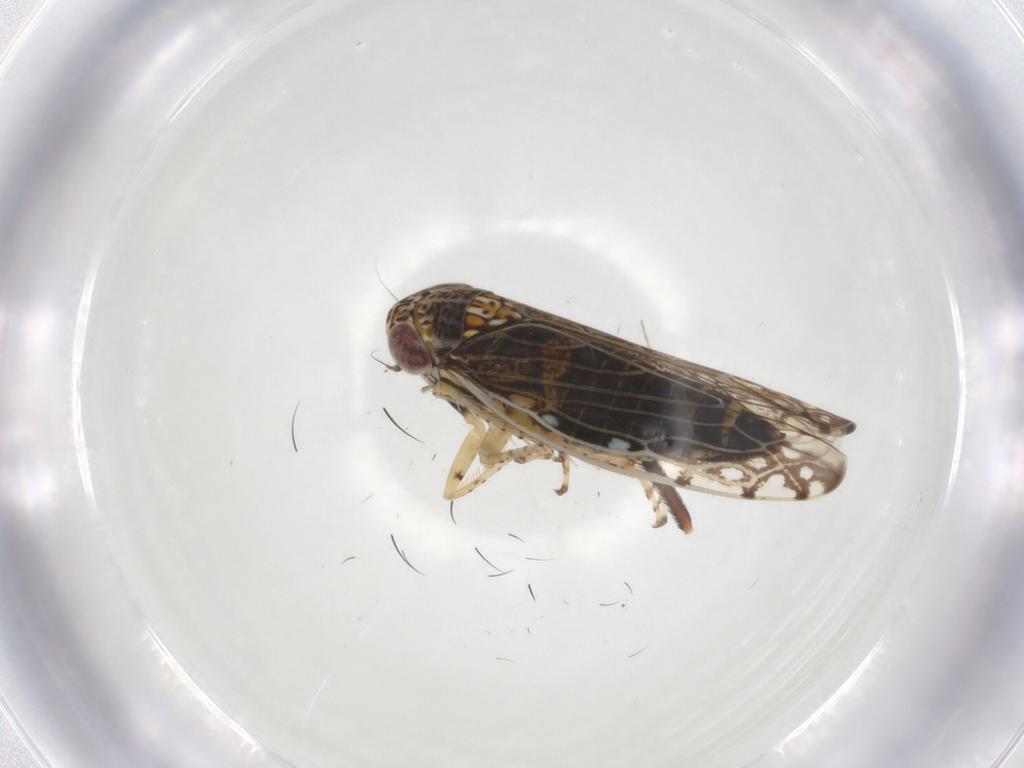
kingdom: Animalia
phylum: Arthropoda
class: Insecta
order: Hemiptera
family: Cicadellidae
